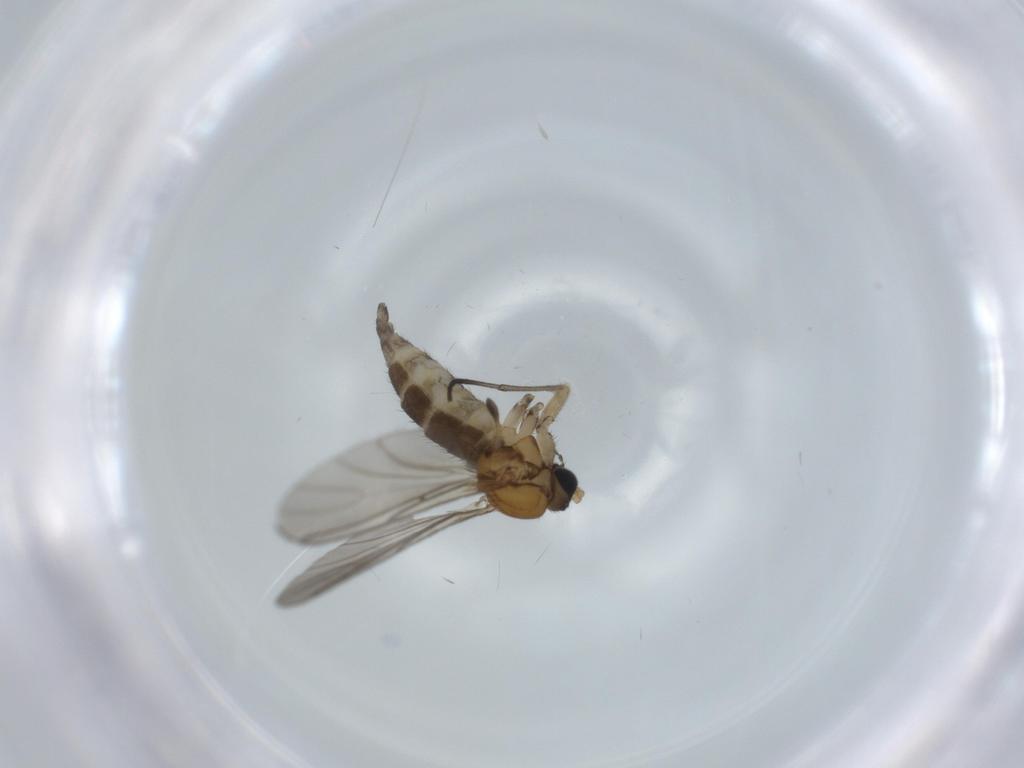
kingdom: Animalia
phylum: Arthropoda
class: Insecta
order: Diptera
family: Sciaridae
